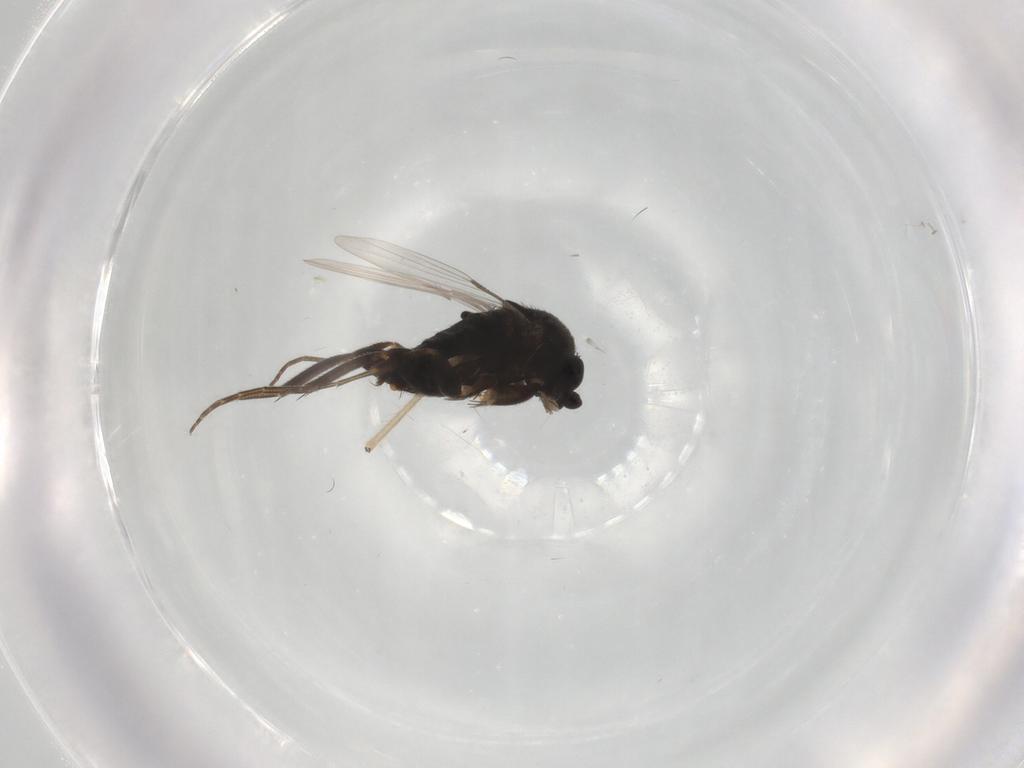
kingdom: Animalia
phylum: Arthropoda
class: Insecta
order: Diptera
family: Phoridae
